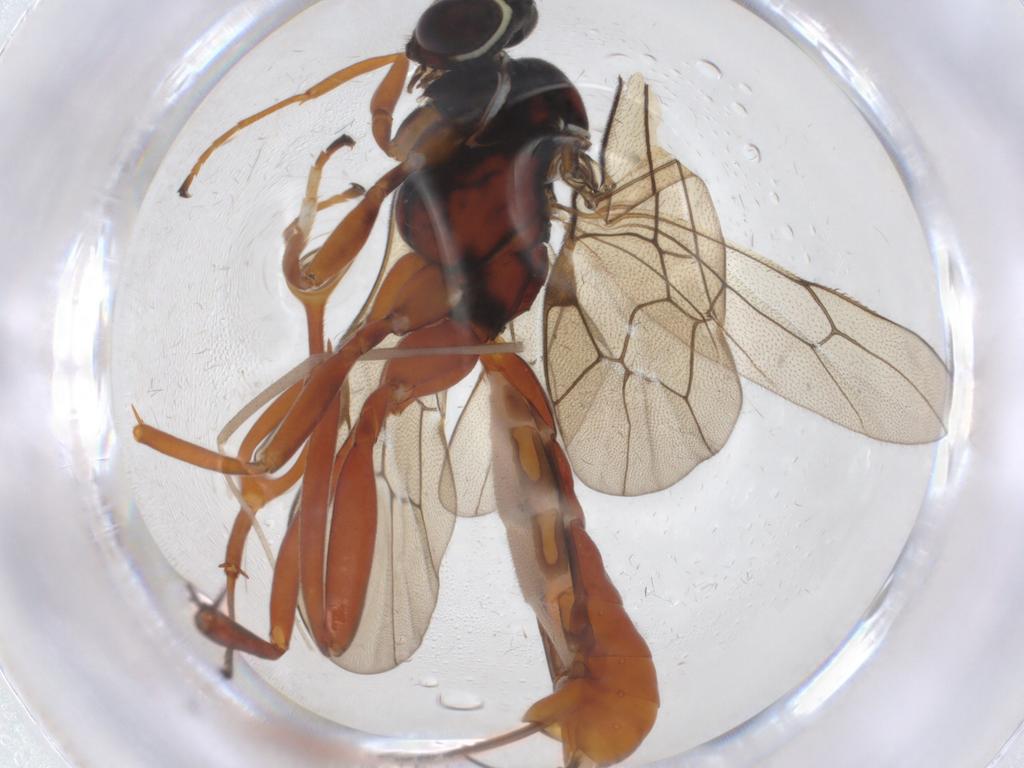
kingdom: Animalia
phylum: Arthropoda
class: Insecta
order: Hymenoptera
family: Ichneumonidae
